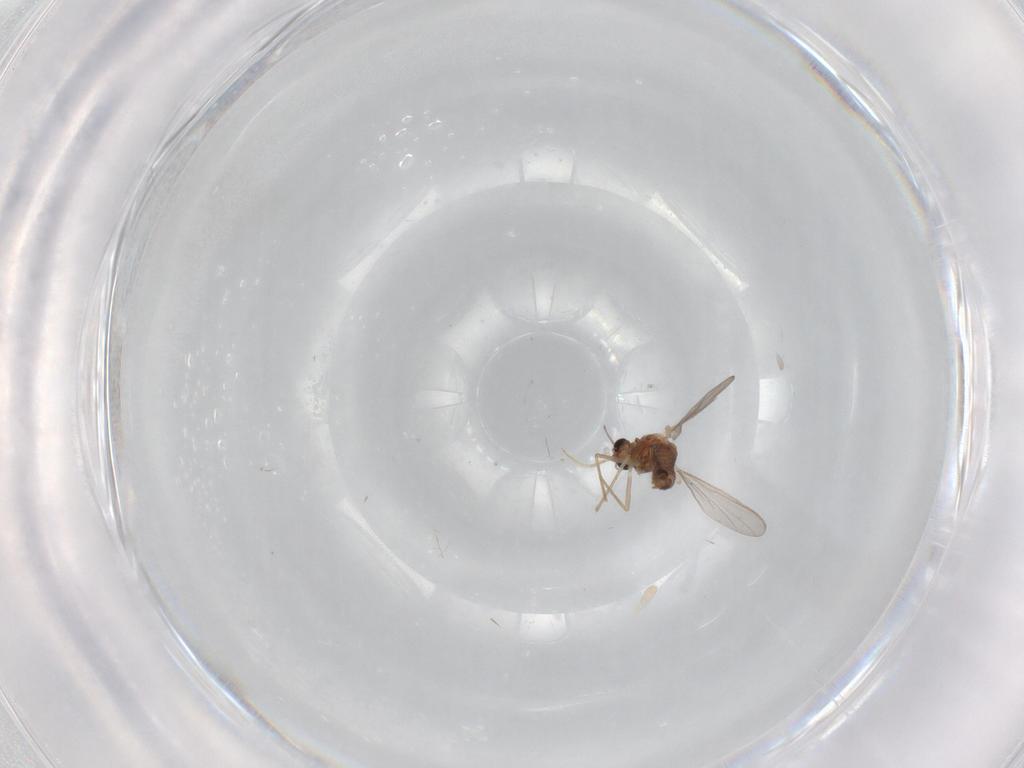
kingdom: Animalia
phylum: Arthropoda
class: Insecta
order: Diptera
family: Chironomidae
